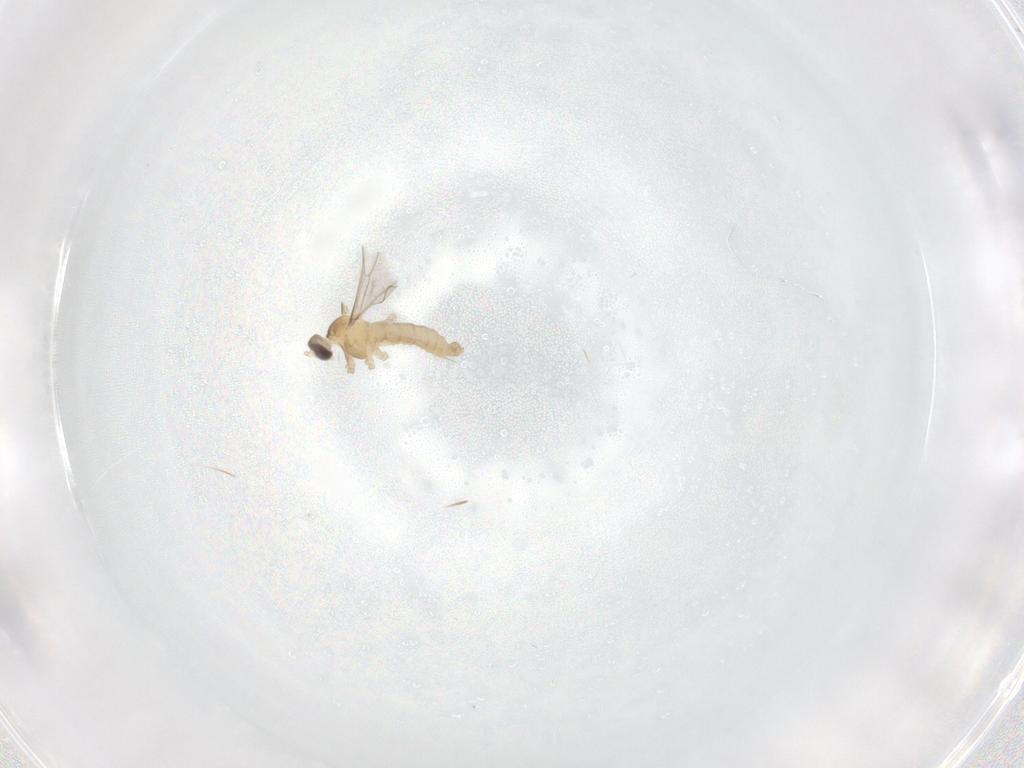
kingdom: Animalia
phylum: Arthropoda
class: Insecta
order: Diptera
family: Cecidomyiidae
